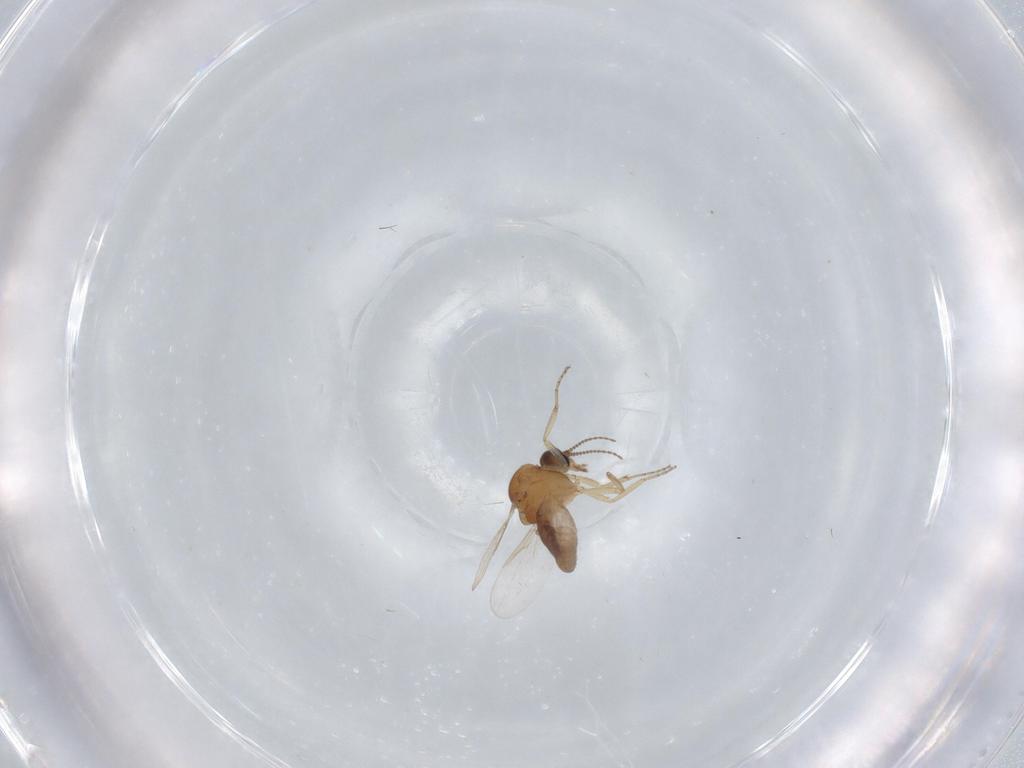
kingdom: Animalia
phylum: Arthropoda
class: Insecta
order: Diptera
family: Ceratopogonidae
